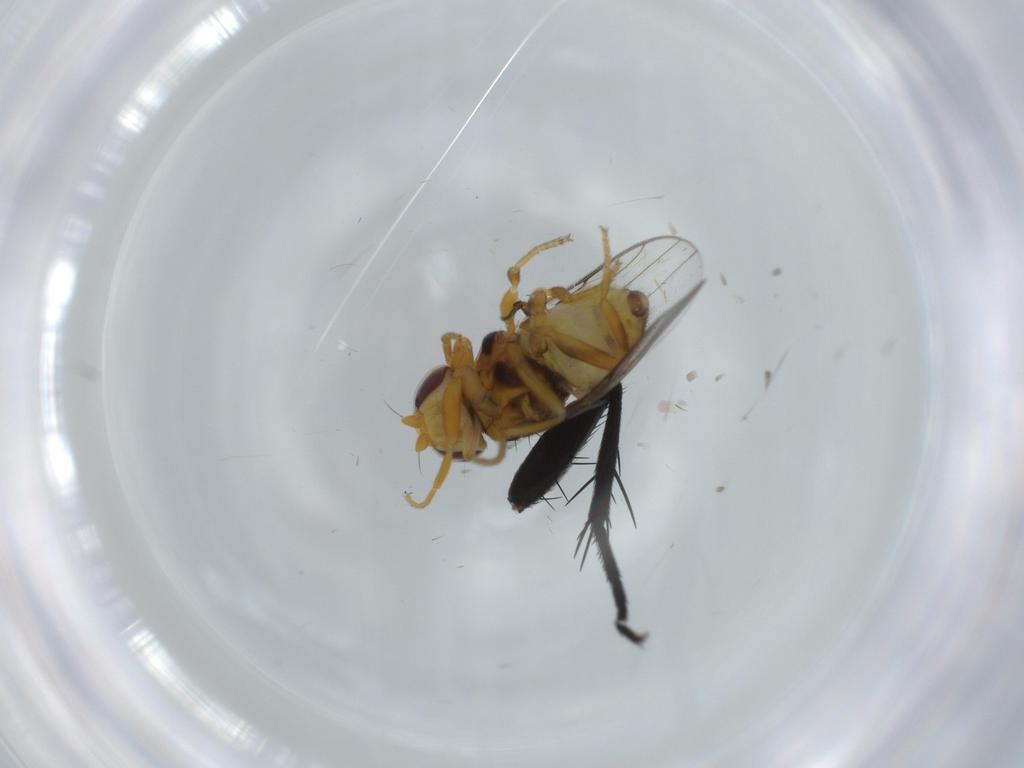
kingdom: Animalia
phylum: Arthropoda
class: Insecta
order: Diptera
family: Chloropidae
